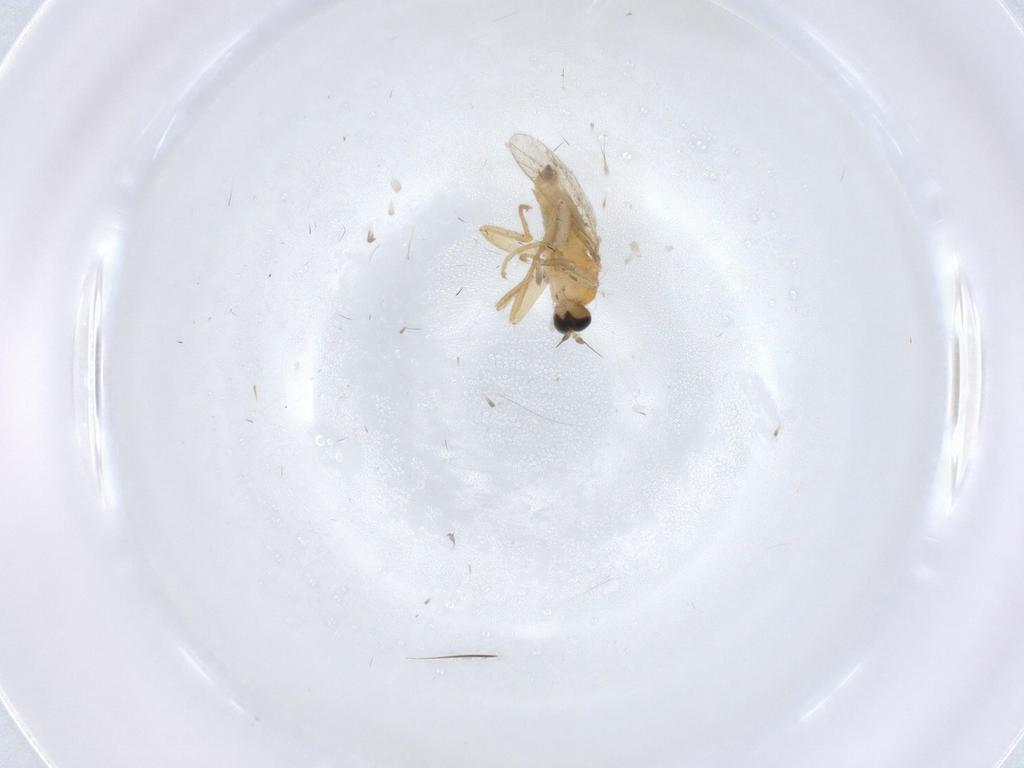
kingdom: Animalia
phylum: Arthropoda
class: Insecta
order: Diptera
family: Hybotidae
